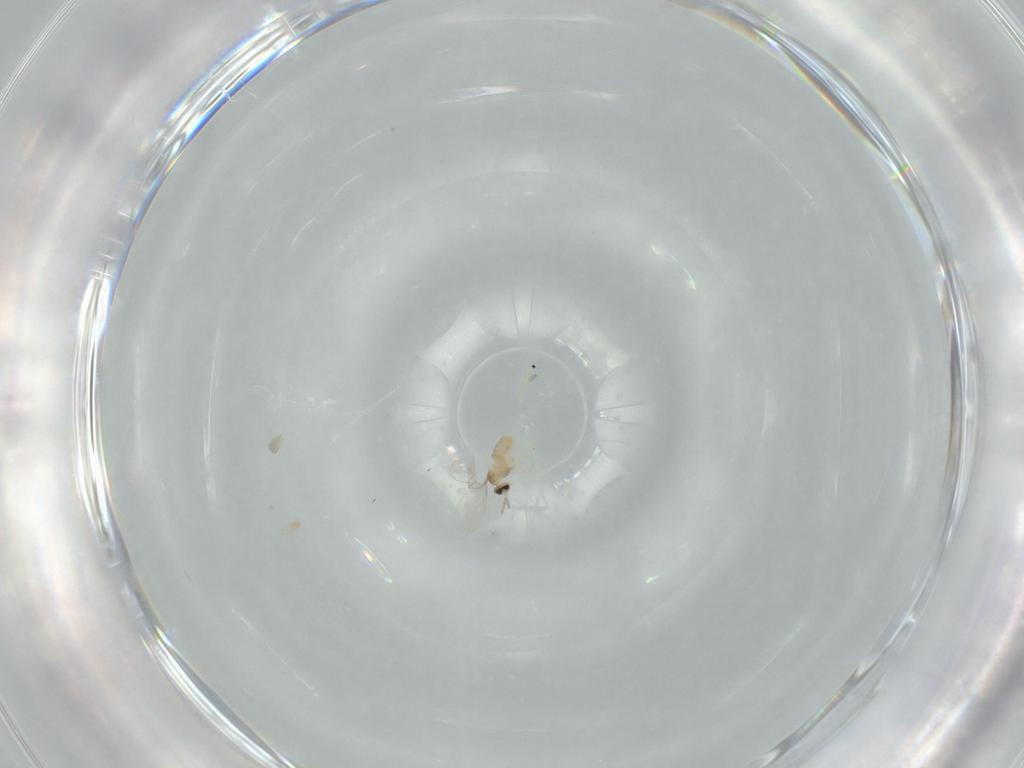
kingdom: Animalia
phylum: Arthropoda
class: Insecta
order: Diptera
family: Cecidomyiidae
